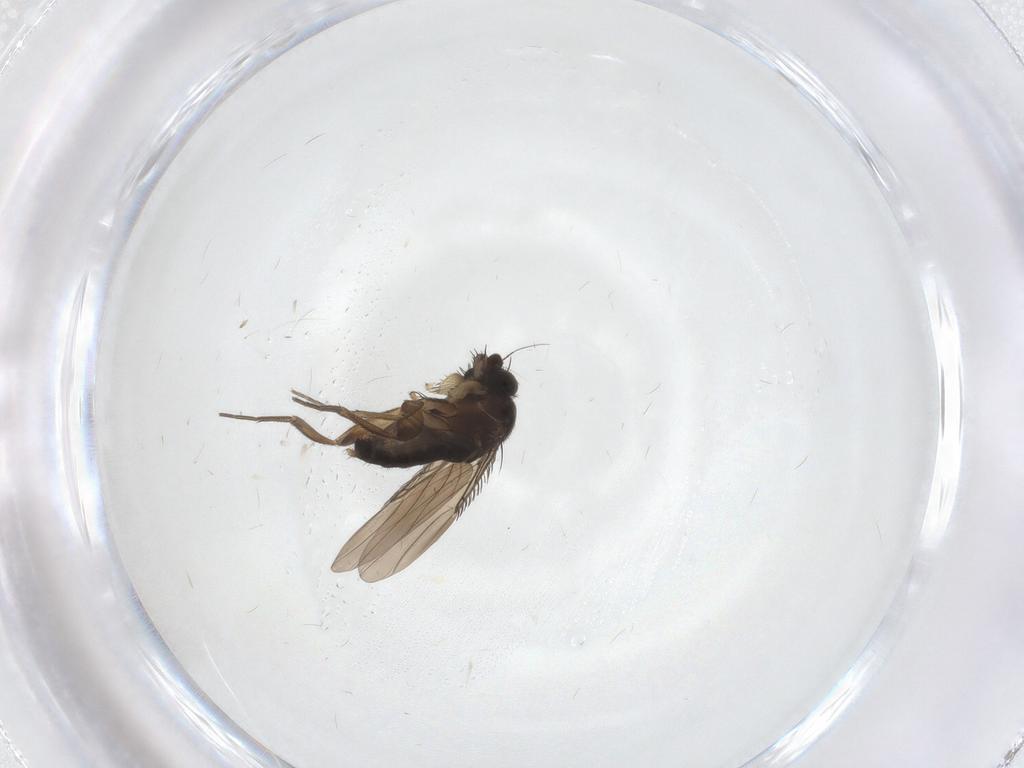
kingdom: Animalia
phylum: Arthropoda
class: Insecta
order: Diptera
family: Phoridae
